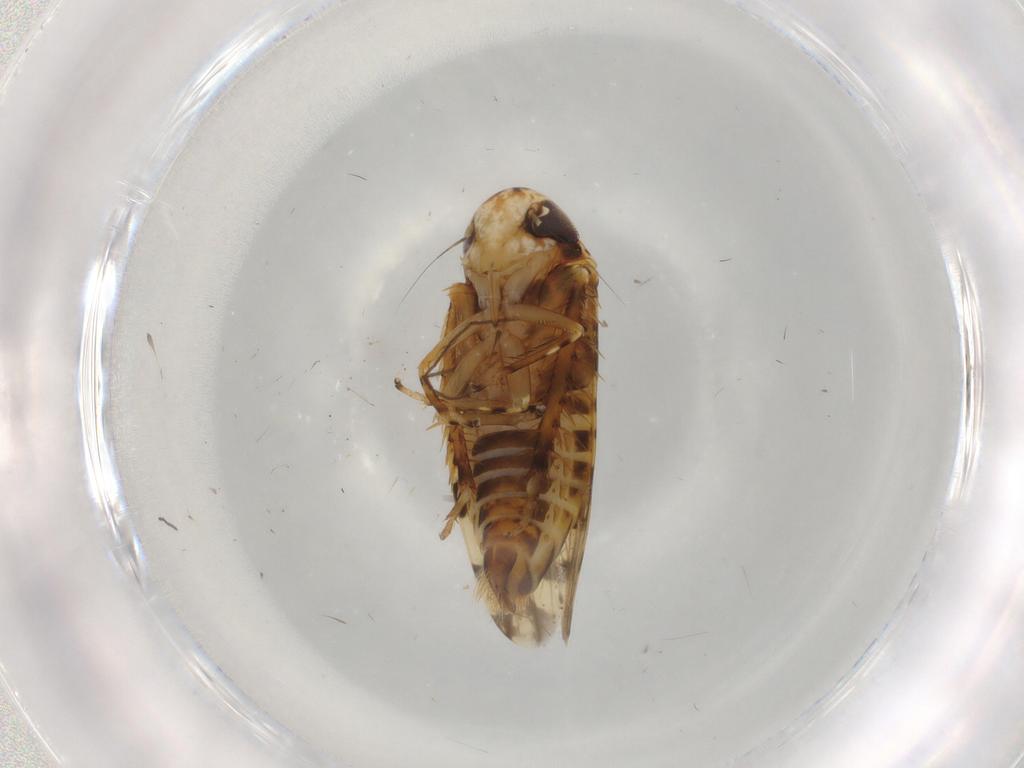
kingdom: Animalia
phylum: Arthropoda
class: Insecta
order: Hemiptera
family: Cicadellidae
